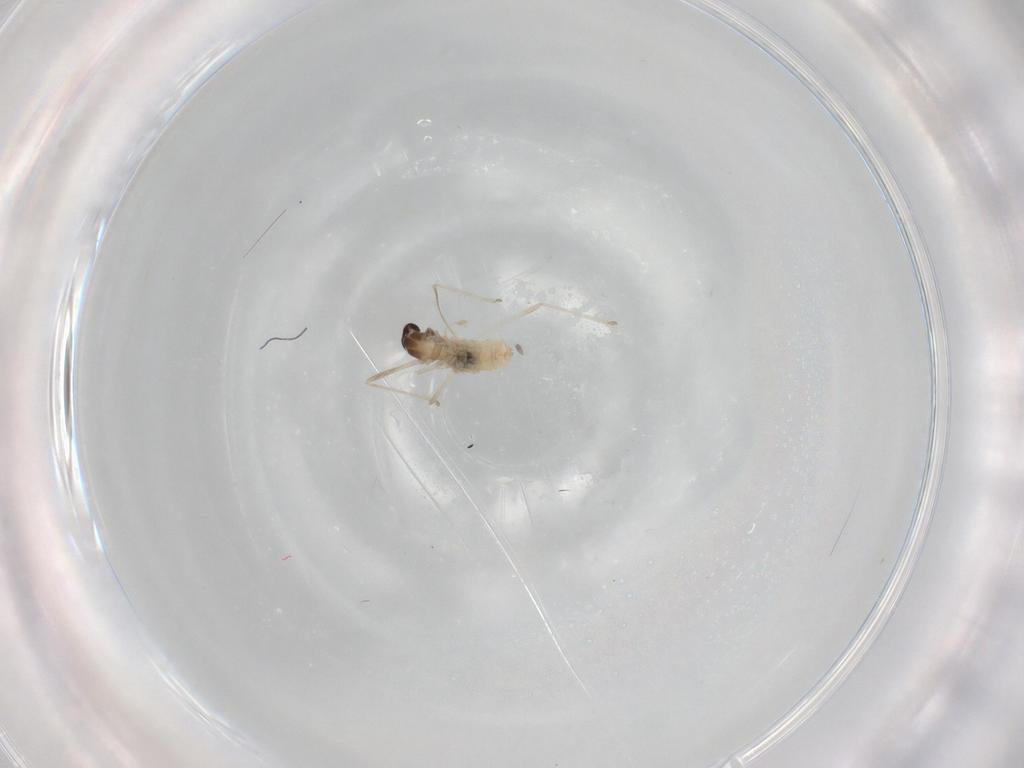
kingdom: Animalia
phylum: Arthropoda
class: Insecta
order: Diptera
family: Cecidomyiidae
